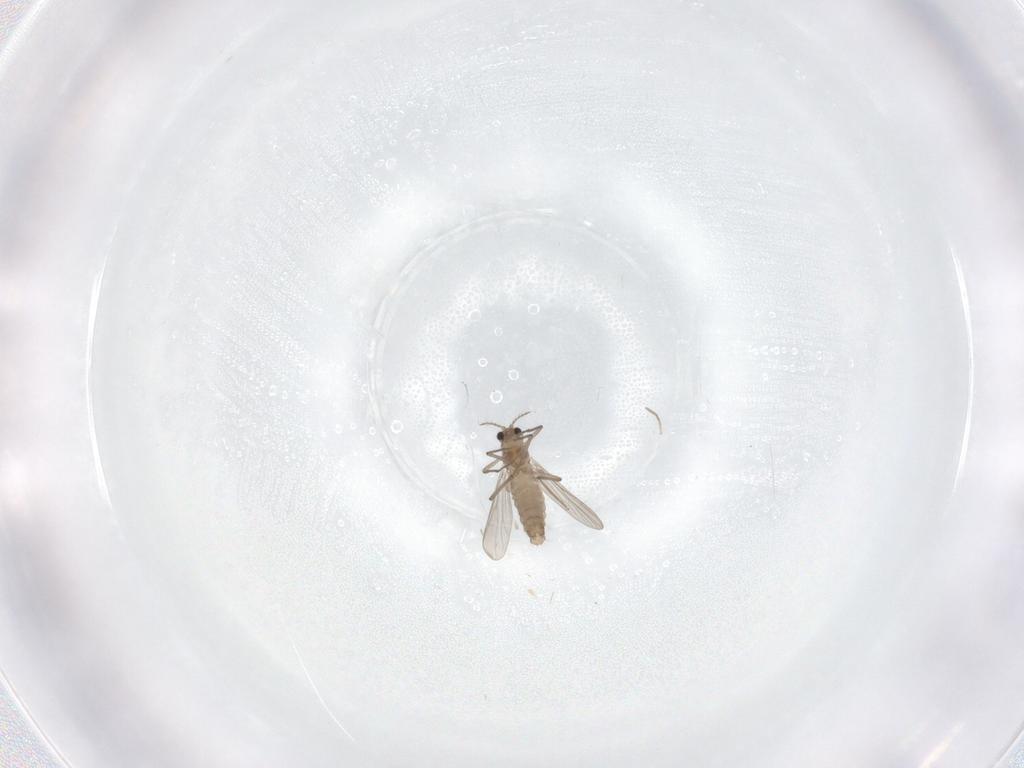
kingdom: Animalia
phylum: Arthropoda
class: Insecta
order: Diptera
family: Chironomidae
